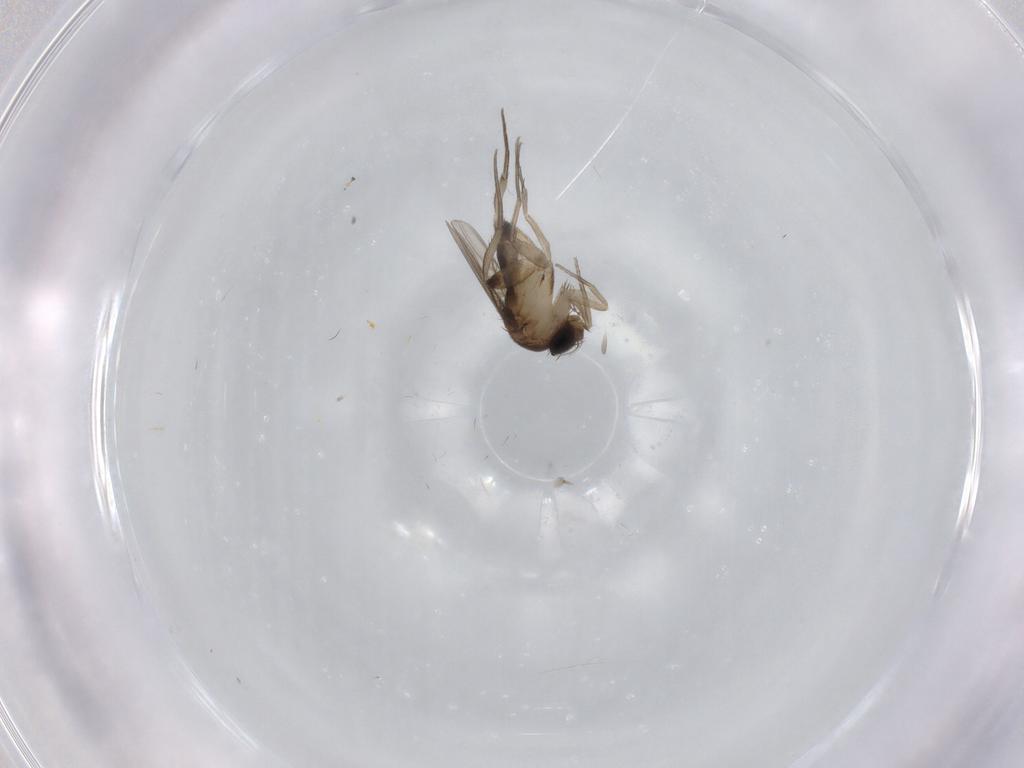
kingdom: Animalia
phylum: Arthropoda
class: Insecta
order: Diptera
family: Phoridae
